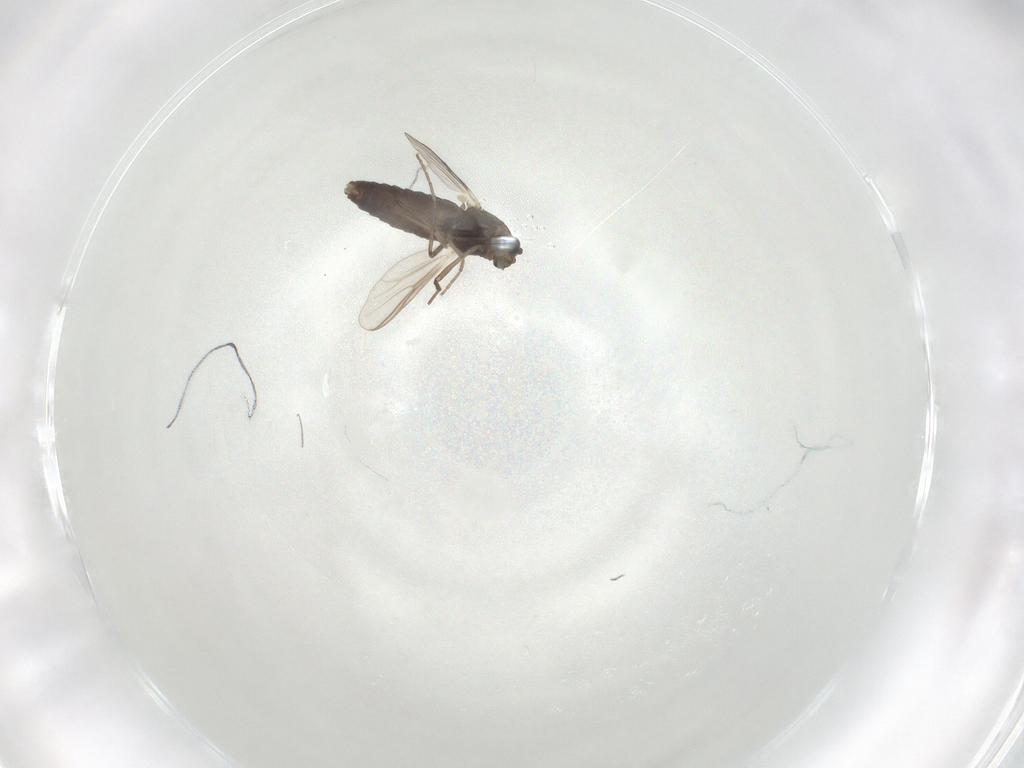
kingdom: Animalia
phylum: Arthropoda
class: Insecta
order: Diptera
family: Chironomidae
